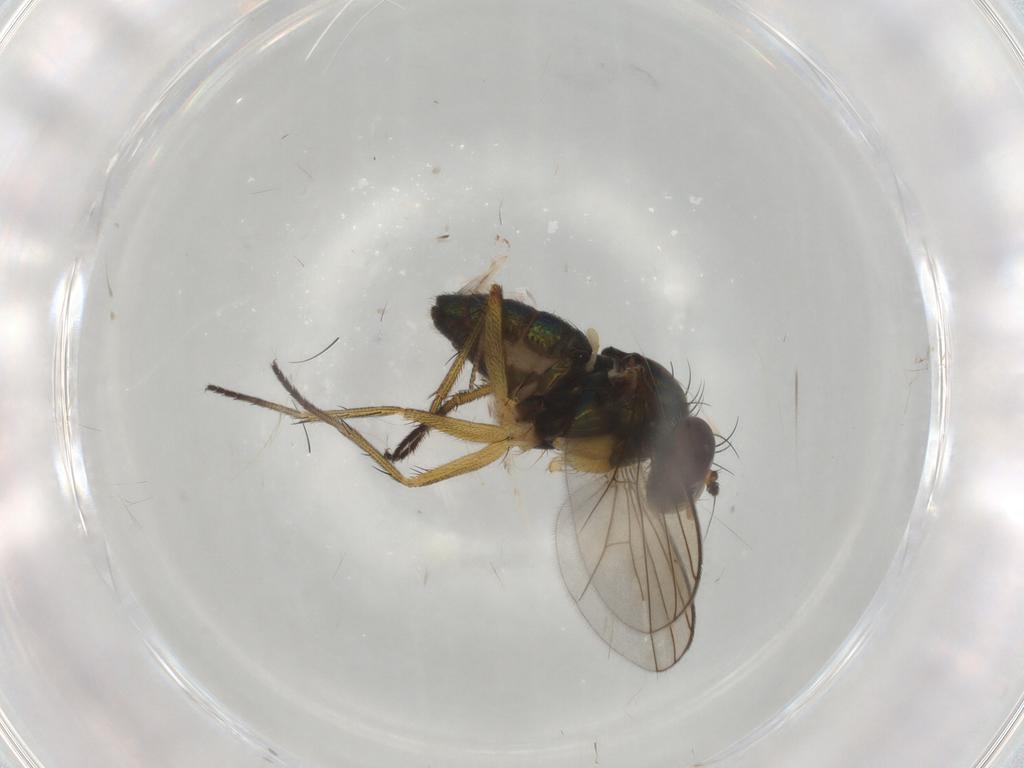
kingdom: Animalia
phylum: Arthropoda
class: Insecta
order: Diptera
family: Dolichopodidae
